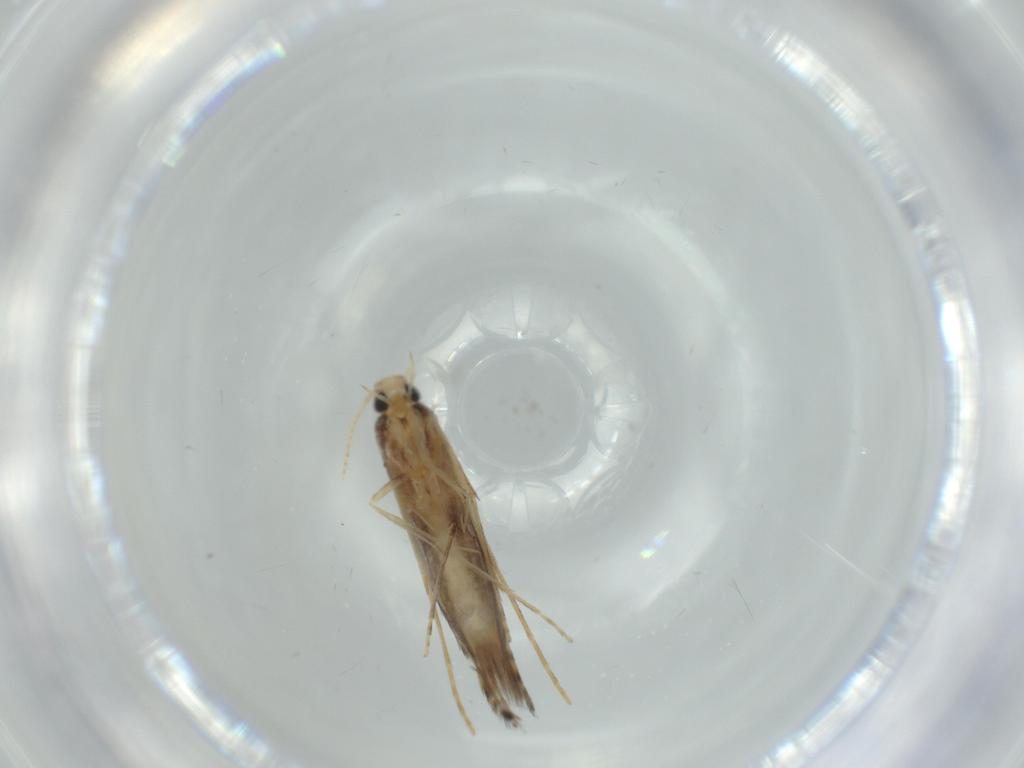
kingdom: Animalia
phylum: Arthropoda
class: Insecta
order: Lepidoptera
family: Gracillariidae
